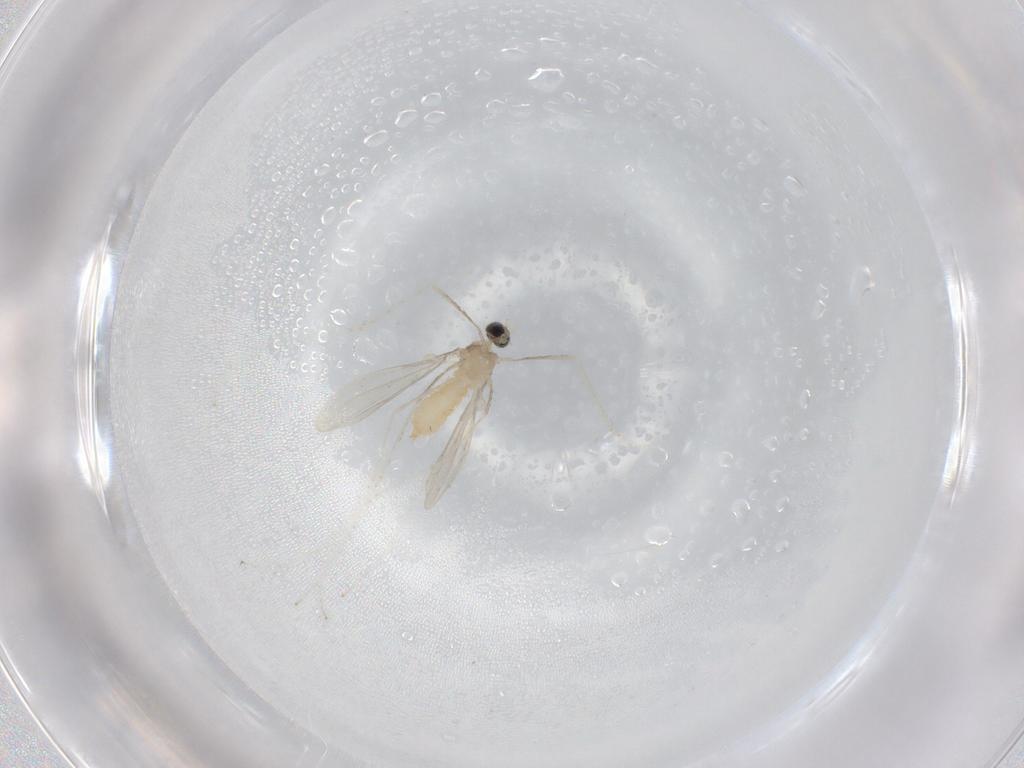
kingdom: Animalia
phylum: Arthropoda
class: Insecta
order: Diptera
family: Cecidomyiidae
